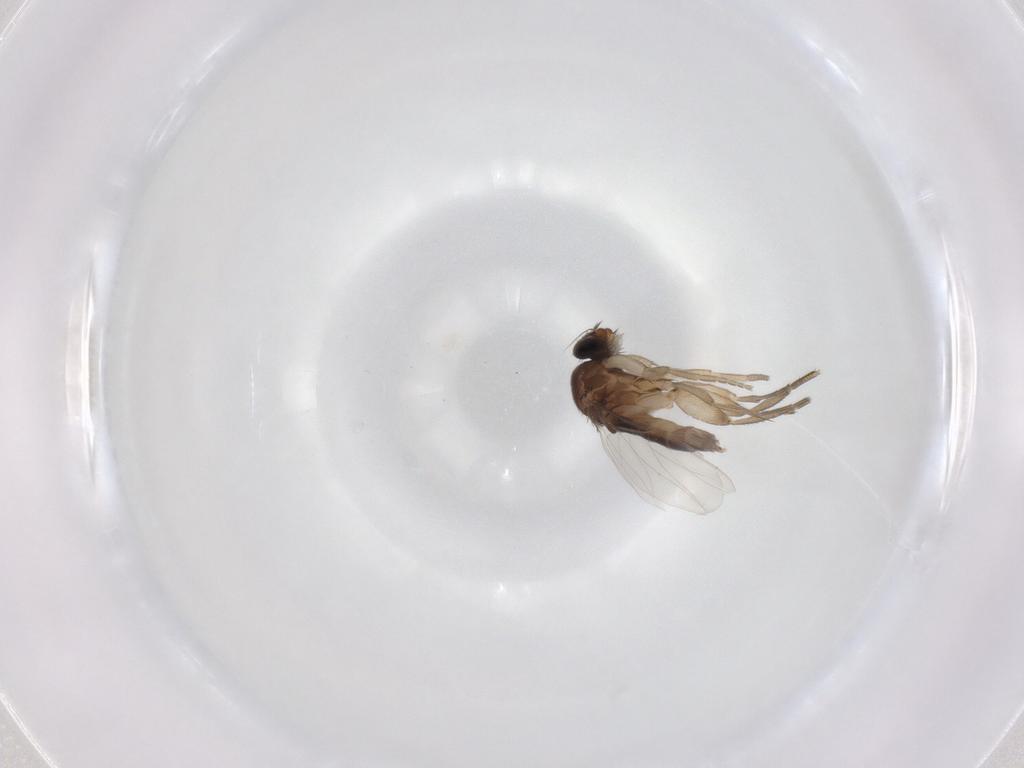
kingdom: Animalia
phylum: Arthropoda
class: Insecta
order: Diptera
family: Phoridae
